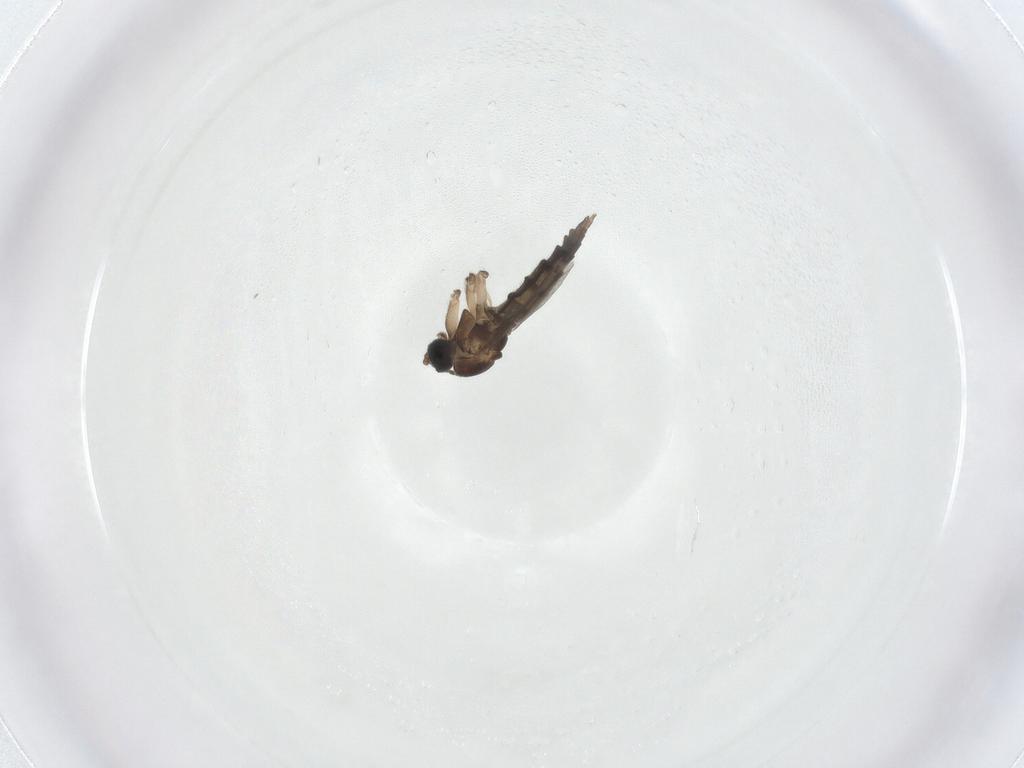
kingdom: Animalia
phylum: Arthropoda
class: Insecta
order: Diptera
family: Sciaridae
